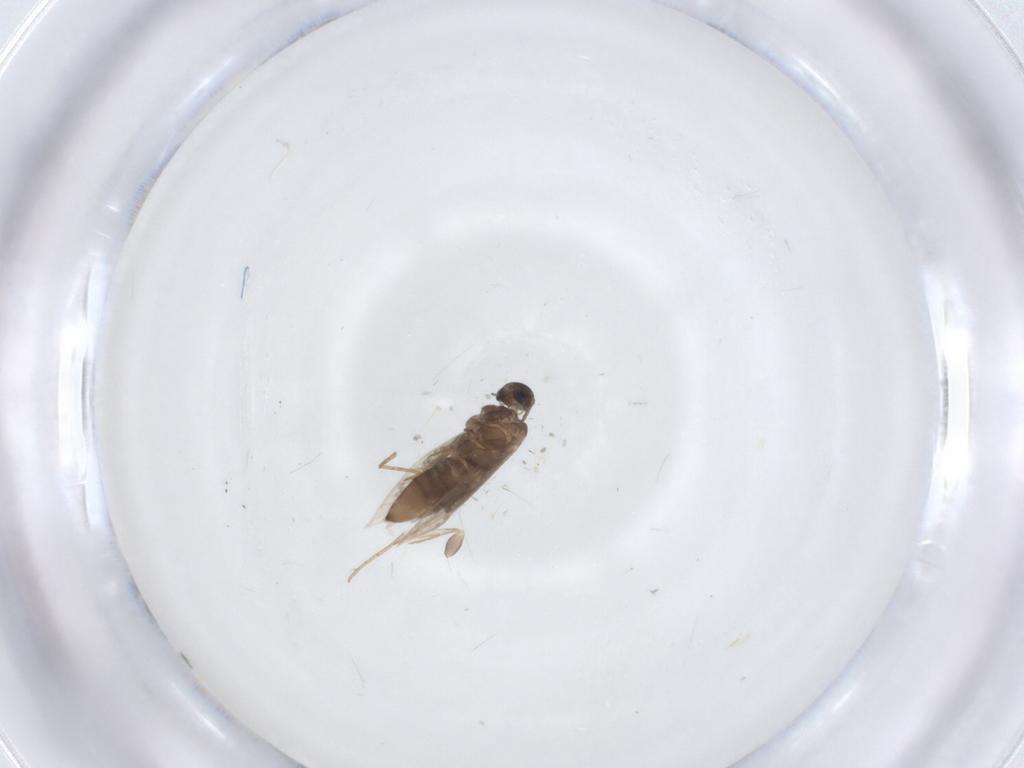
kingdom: Animalia
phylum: Arthropoda
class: Insecta
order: Lepidoptera
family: Heliozelidae
